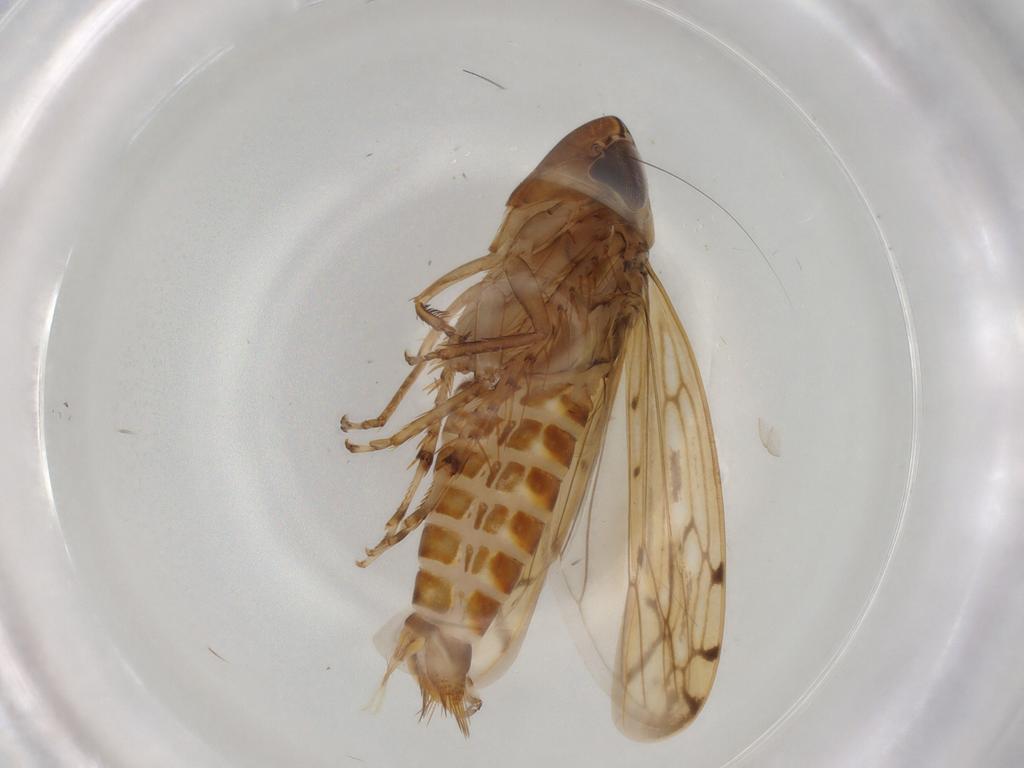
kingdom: Animalia
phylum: Arthropoda
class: Insecta
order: Hemiptera
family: Cicadellidae
